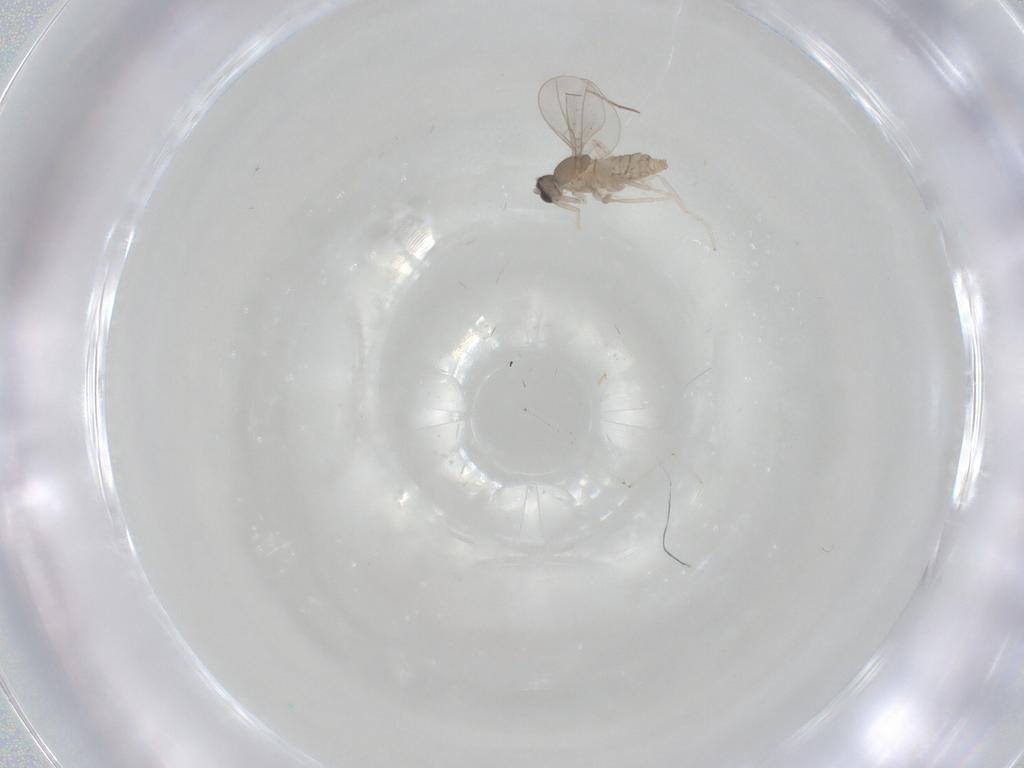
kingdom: Animalia
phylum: Arthropoda
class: Insecta
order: Diptera
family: Cecidomyiidae
